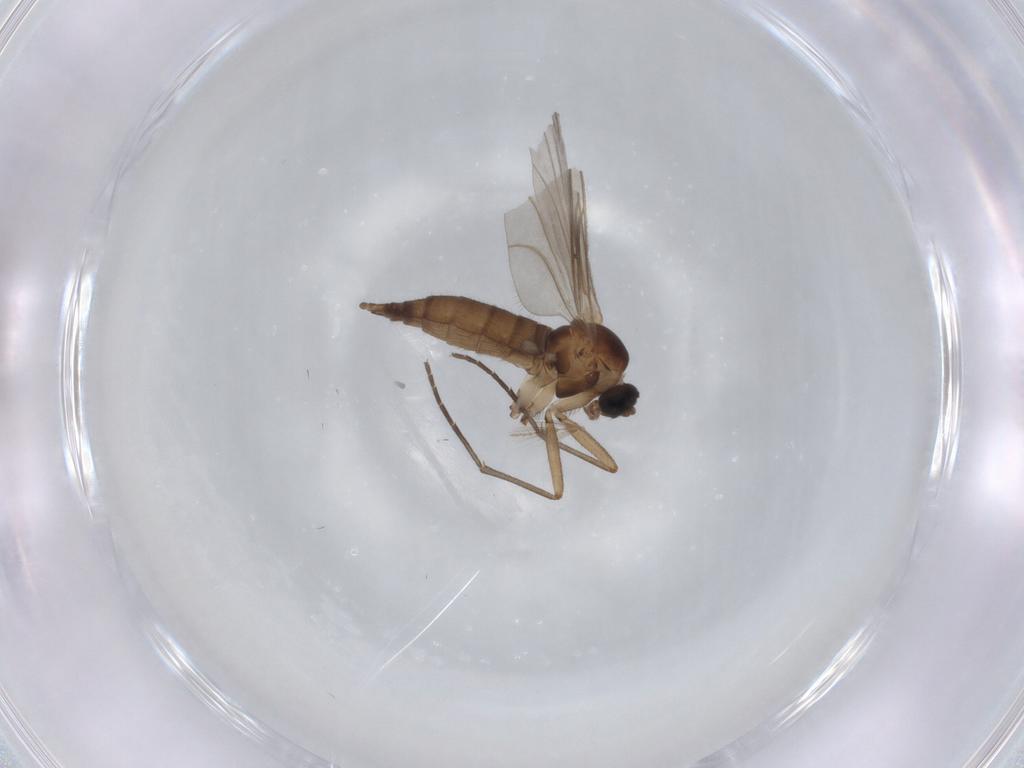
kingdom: Animalia
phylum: Arthropoda
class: Insecta
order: Diptera
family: Sciaridae
